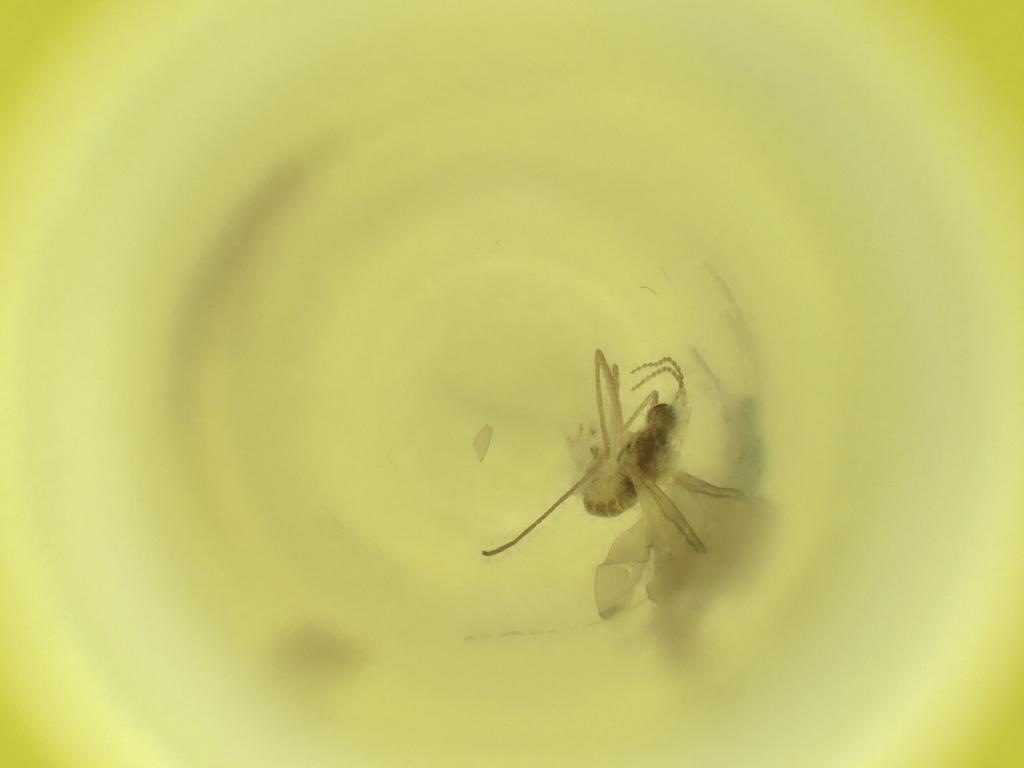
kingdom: Animalia
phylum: Arthropoda
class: Insecta
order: Diptera
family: Cecidomyiidae
